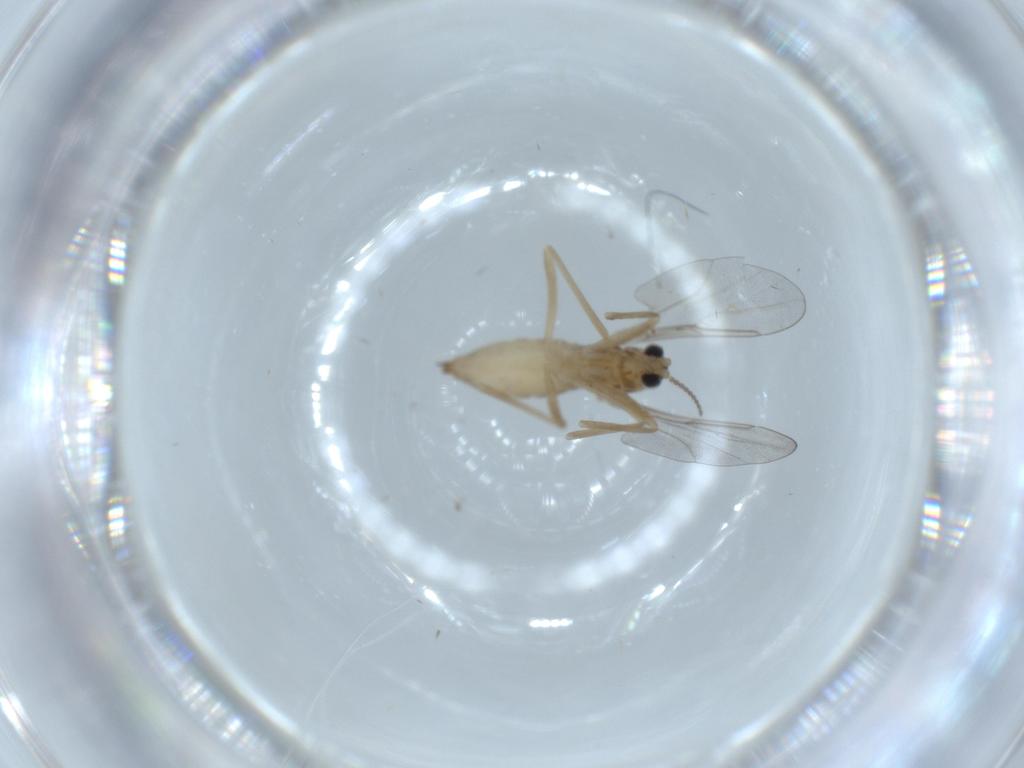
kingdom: Animalia
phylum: Arthropoda
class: Insecta
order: Diptera
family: Cecidomyiidae
